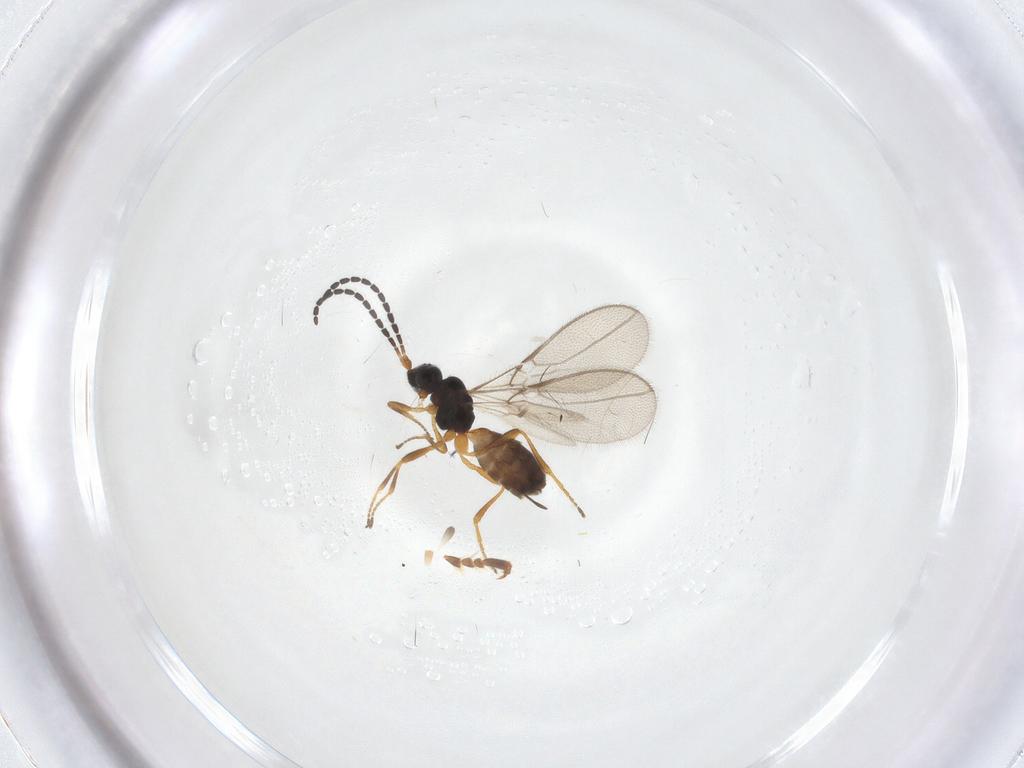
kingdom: Animalia
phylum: Arthropoda
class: Insecta
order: Hymenoptera
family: Braconidae
